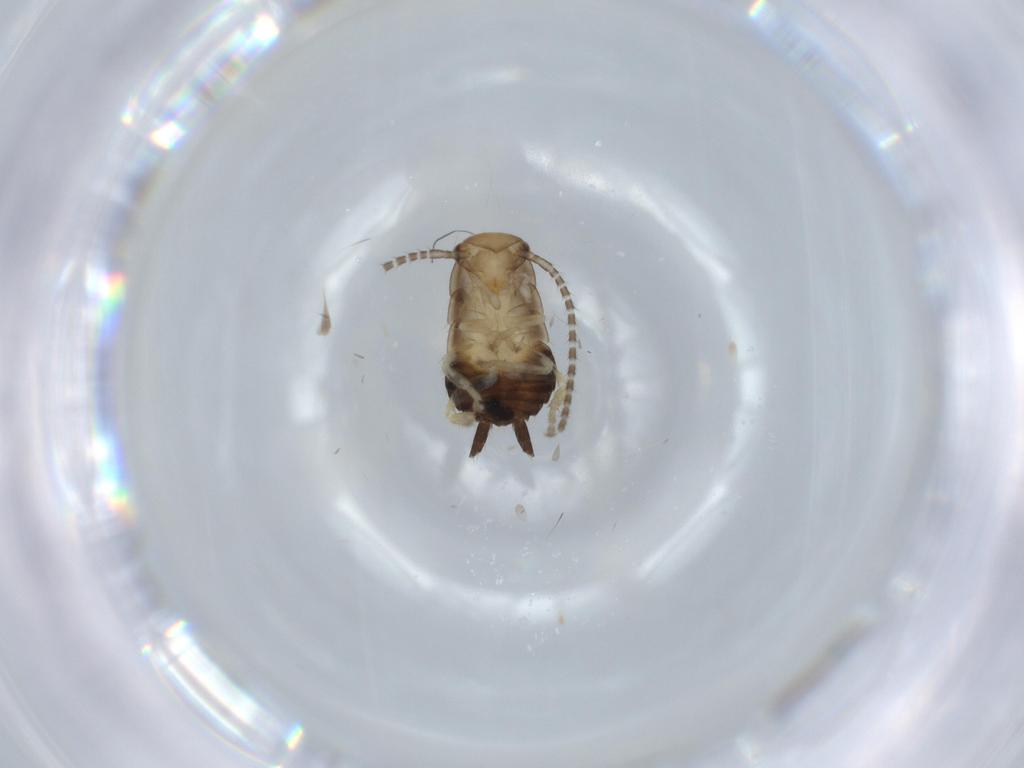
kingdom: Animalia
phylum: Arthropoda
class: Insecta
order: Blattodea
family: Ectobiidae
